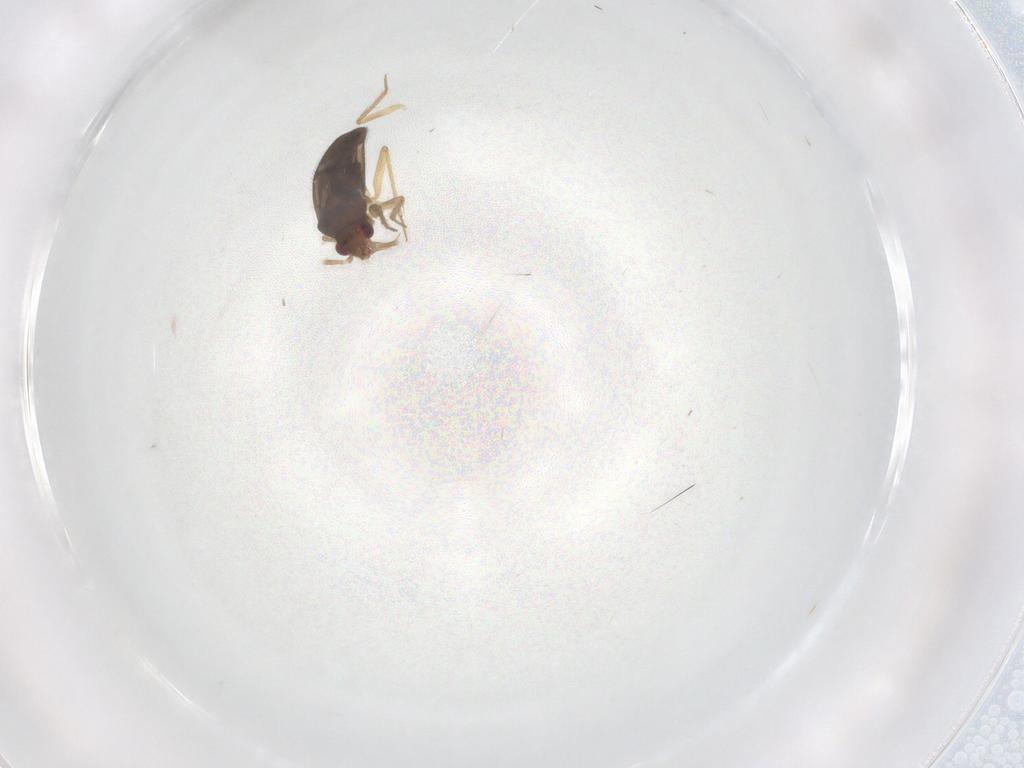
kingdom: Animalia
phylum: Arthropoda
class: Insecta
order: Hemiptera
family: Ceratocombidae
